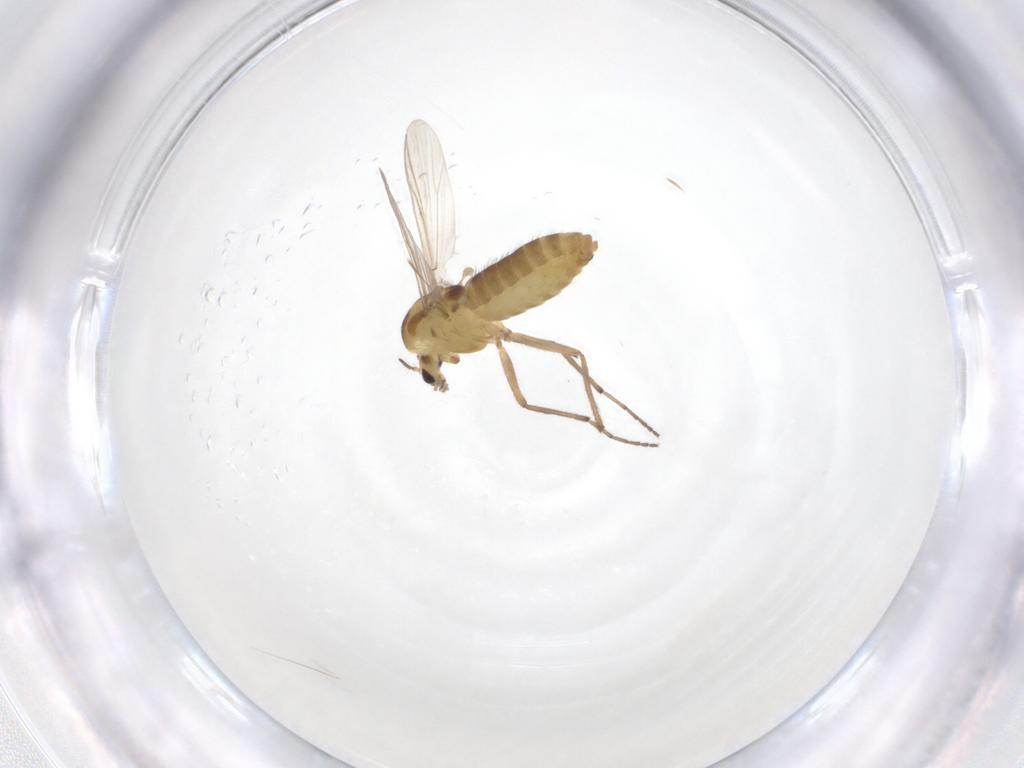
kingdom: Animalia
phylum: Arthropoda
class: Insecta
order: Diptera
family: Chironomidae
